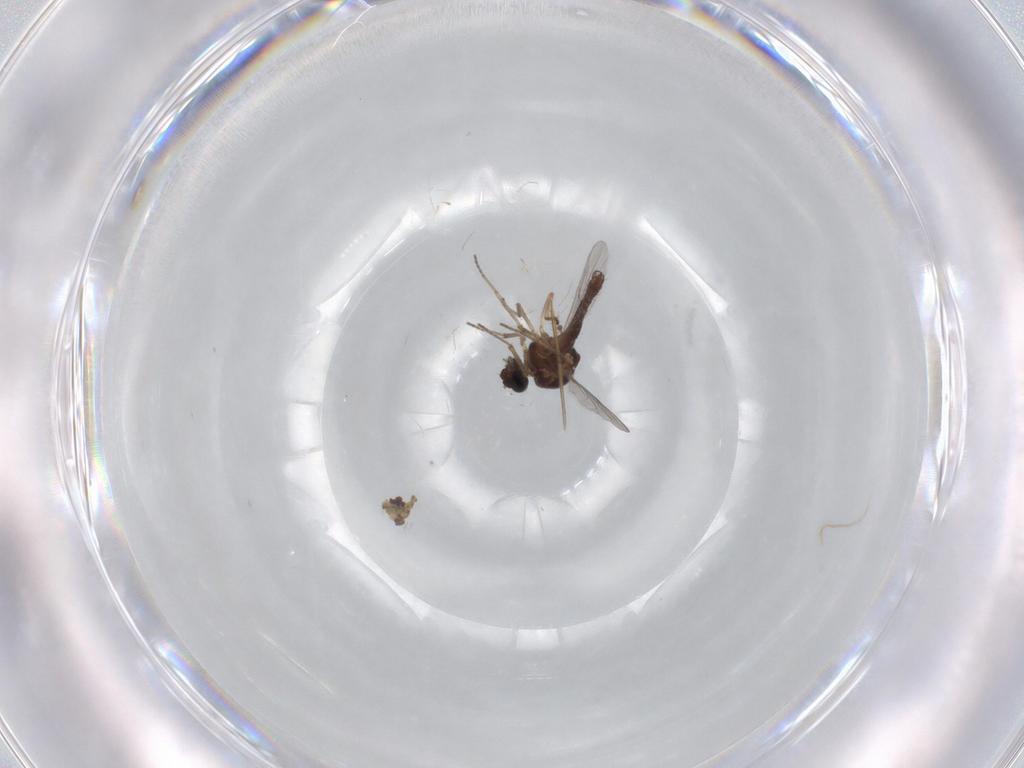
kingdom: Animalia
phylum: Arthropoda
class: Insecta
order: Diptera
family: Ceratopogonidae
